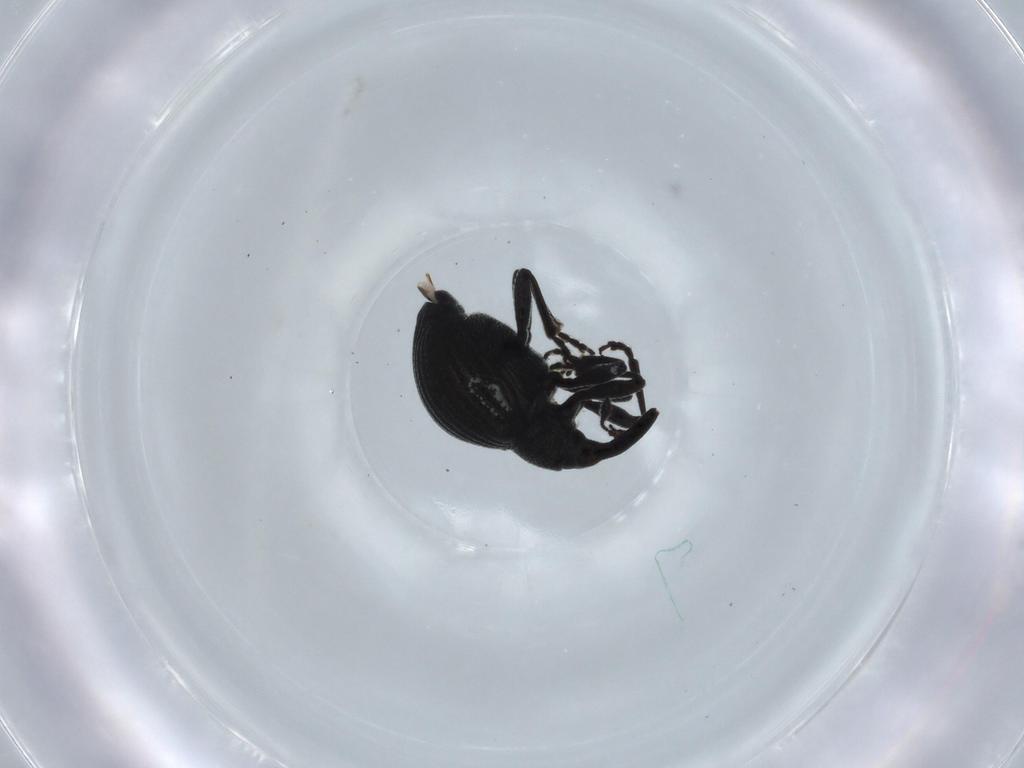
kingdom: Animalia
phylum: Arthropoda
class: Insecta
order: Coleoptera
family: Brentidae
